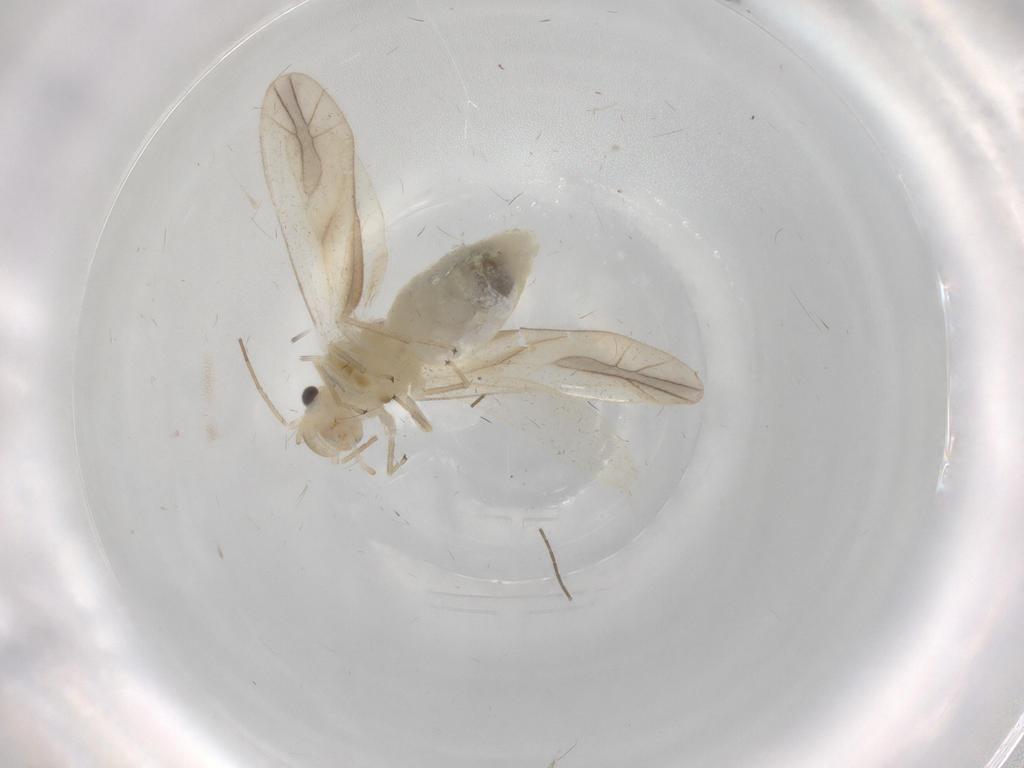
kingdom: Animalia
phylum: Arthropoda
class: Insecta
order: Psocodea
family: Caeciliusidae
